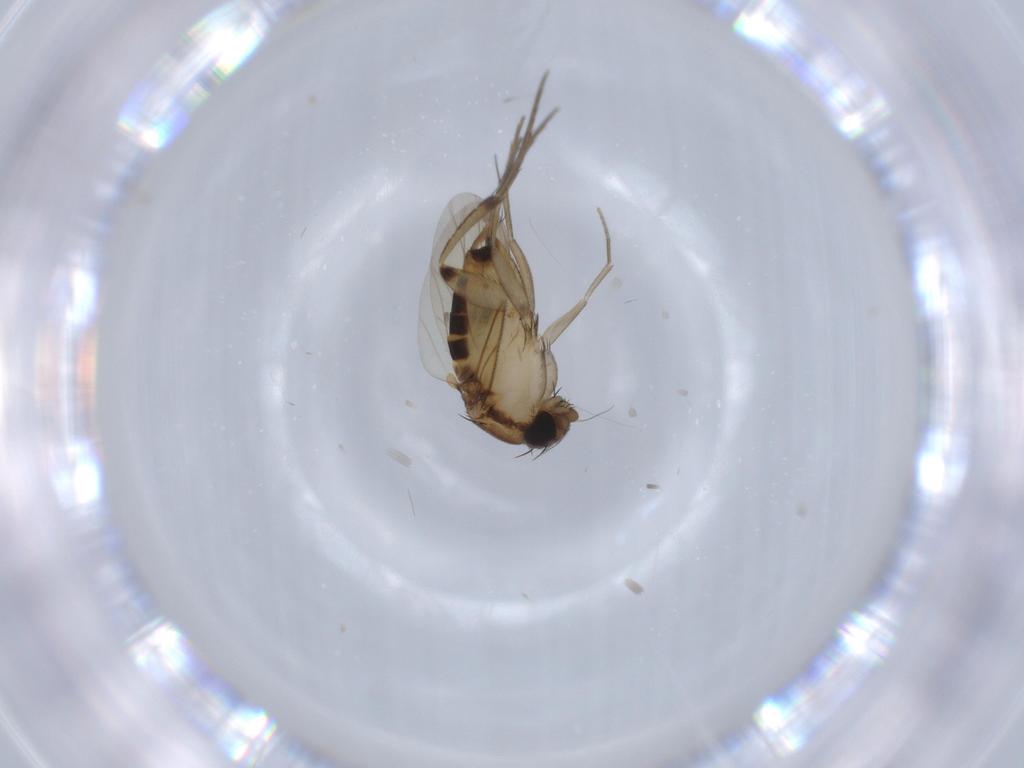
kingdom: Animalia
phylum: Arthropoda
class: Insecta
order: Diptera
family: Phoridae
